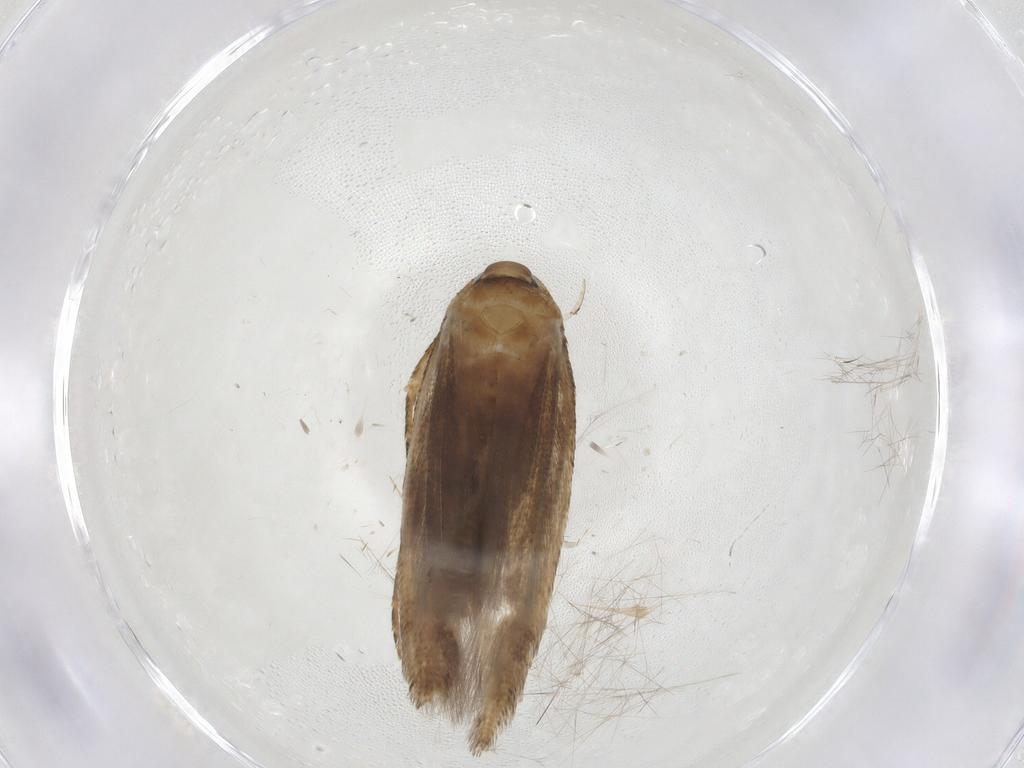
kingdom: Animalia
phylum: Arthropoda
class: Insecta
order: Lepidoptera
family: Cosmopterigidae
